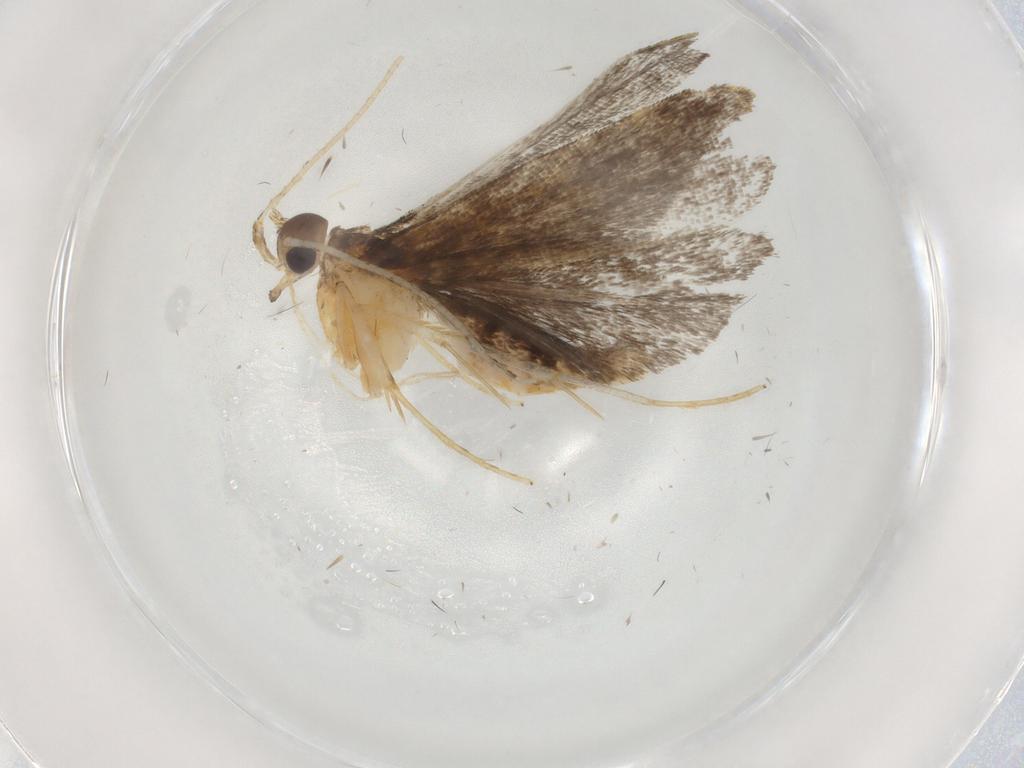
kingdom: Animalia
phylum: Arthropoda
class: Insecta
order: Lepidoptera
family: Cosmopterigidae
